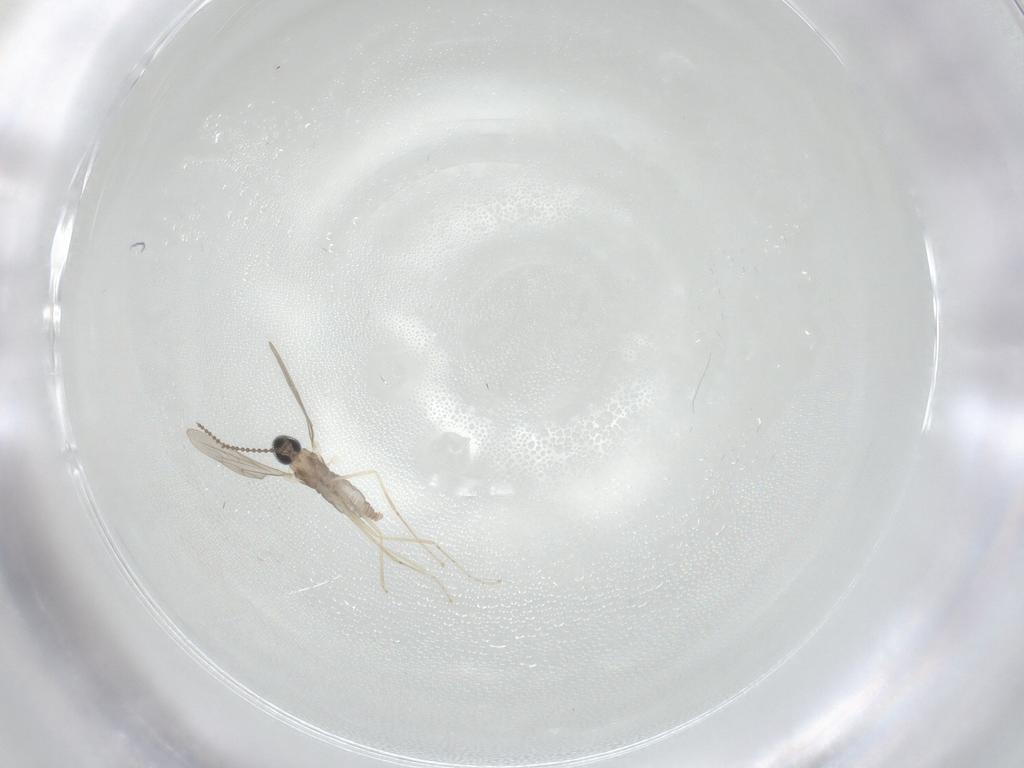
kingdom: Animalia
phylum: Arthropoda
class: Insecta
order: Diptera
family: Cecidomyiidae
